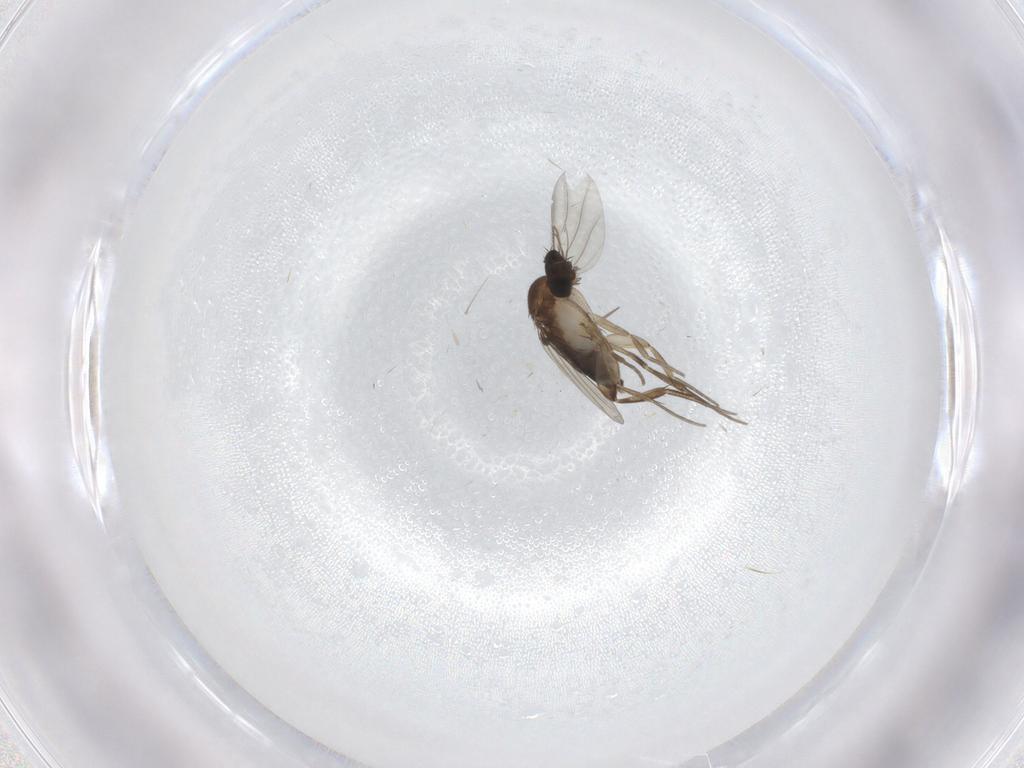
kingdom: Animalia
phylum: Arthropoda
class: Insecta
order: Diptera
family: Phoridae
